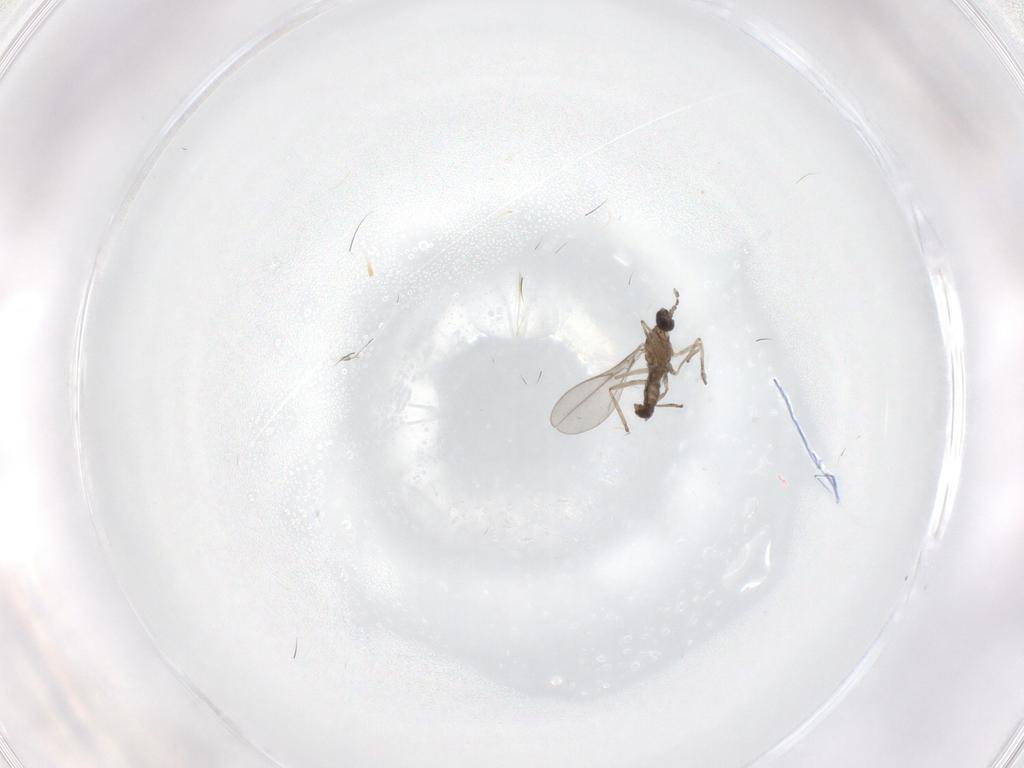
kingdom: Animalia
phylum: Arthropoda
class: Insecta
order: Diptera
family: Cecidomyiidae
